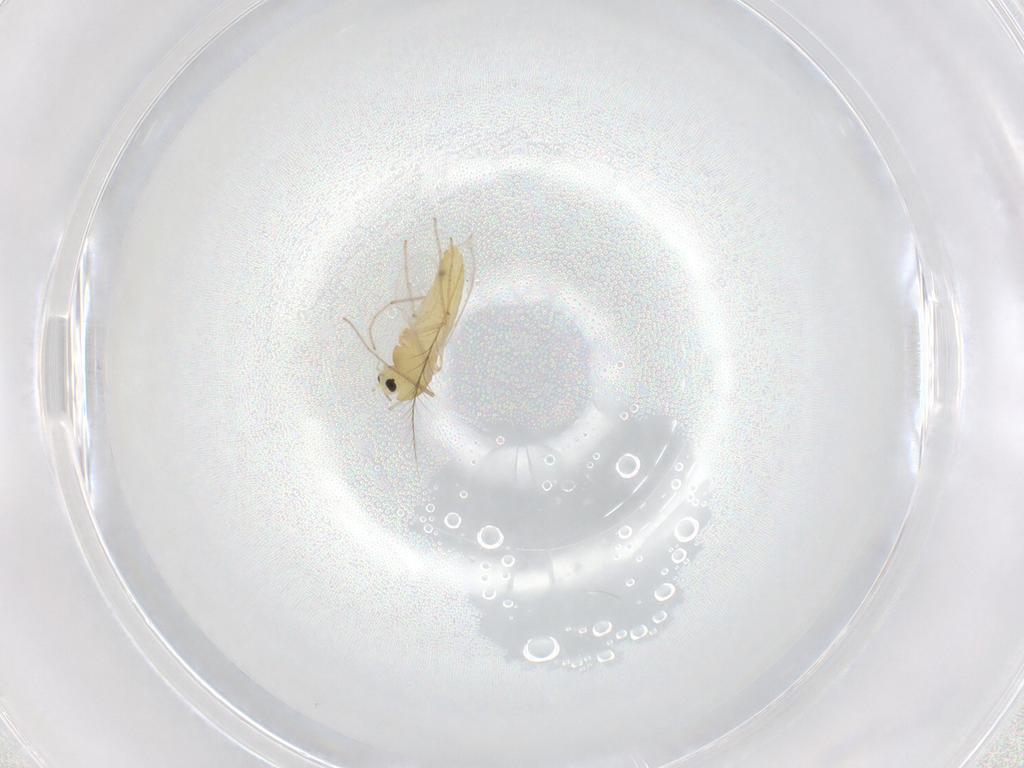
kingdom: Animalia
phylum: Arthropoda
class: Insecta
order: Diptera
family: Chironomidae
